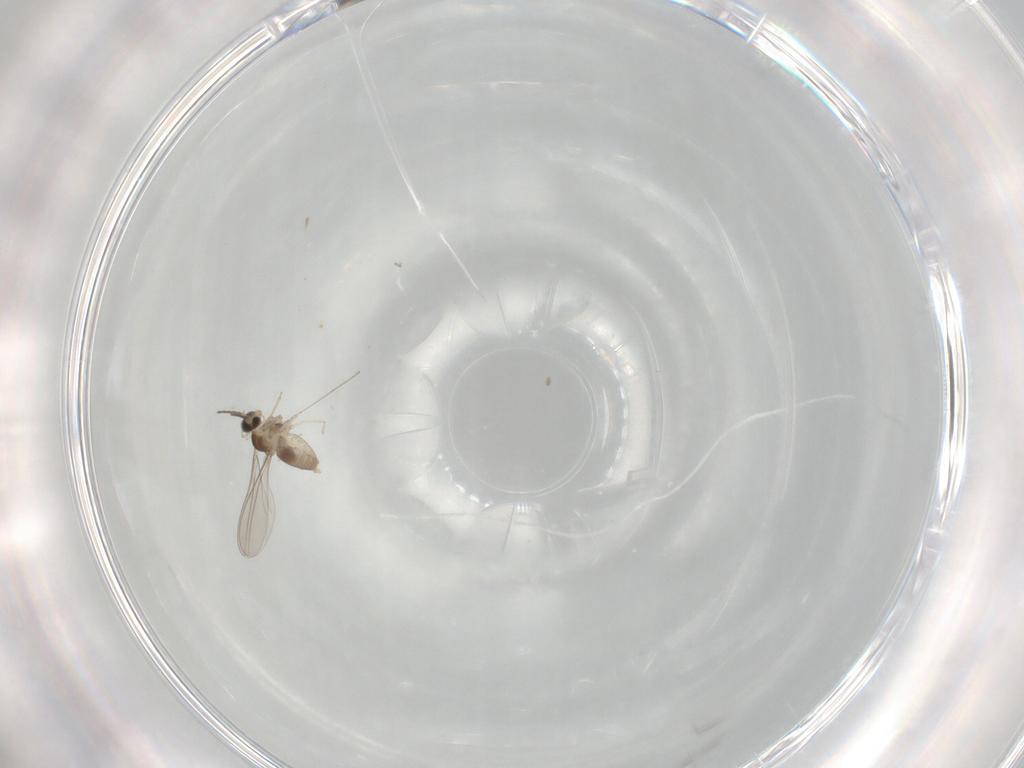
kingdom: Animalia
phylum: Arthropoda
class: Insecta
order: Diptera
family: Cecidomyiidae
